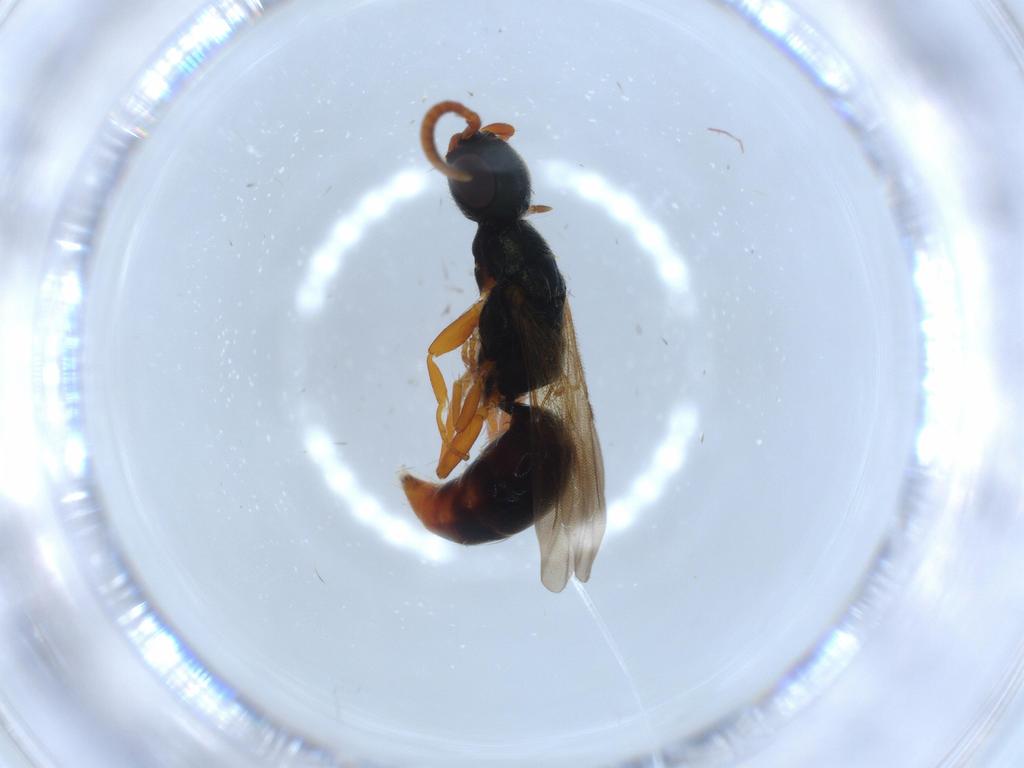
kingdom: Animalia
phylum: Arthropoda
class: Insecta
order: Hymenoptera
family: Bethylidae
